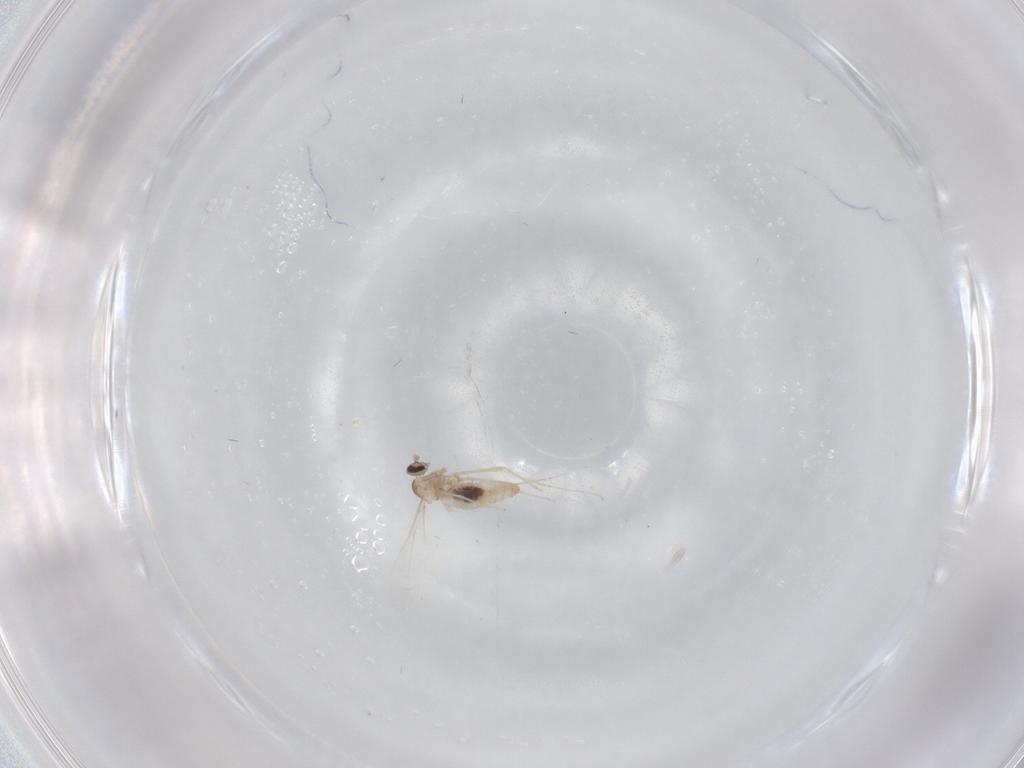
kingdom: Animalia
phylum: Arthropoda
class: Insecta
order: Diptera
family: Cecidomyiidae
